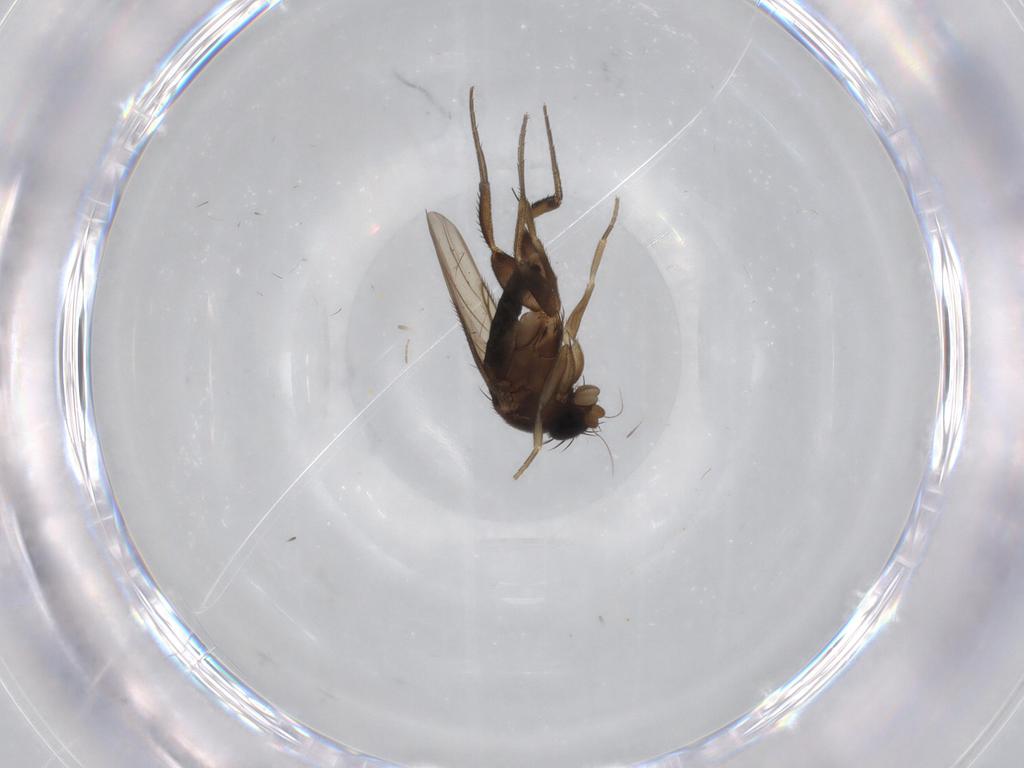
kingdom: Animalia
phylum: Arthropoda
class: Insecta
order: Diptera
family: Phoridae
